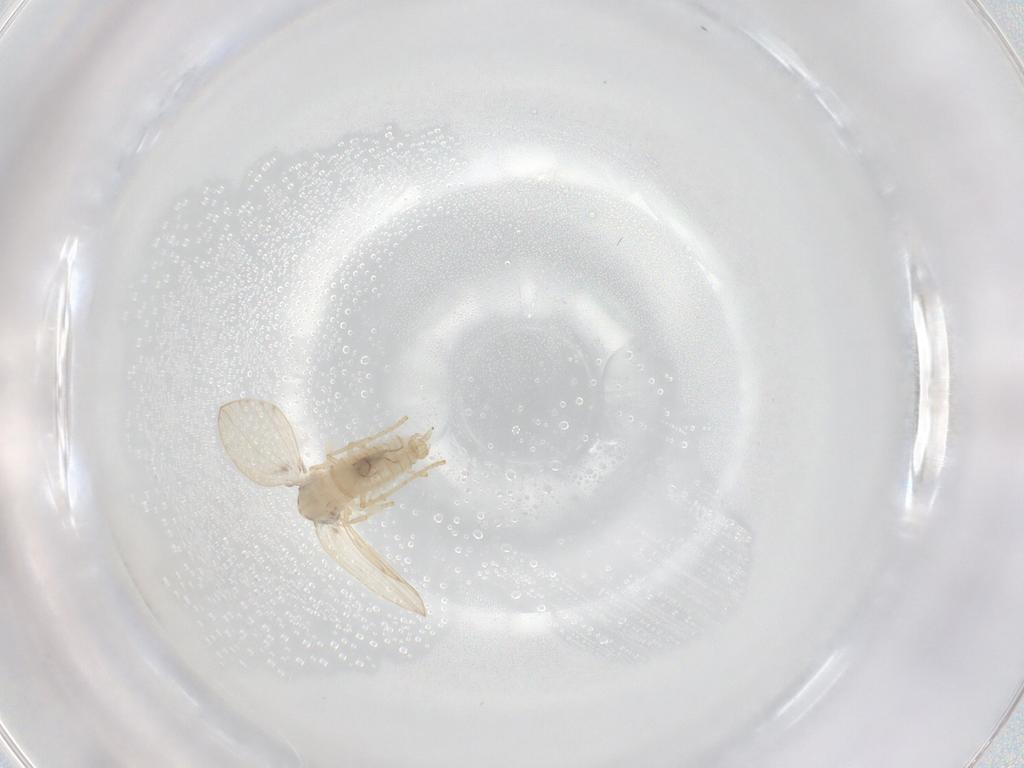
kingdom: Animalia
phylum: Arthropoda
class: Insecta
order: Diptera
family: Psychodidae
